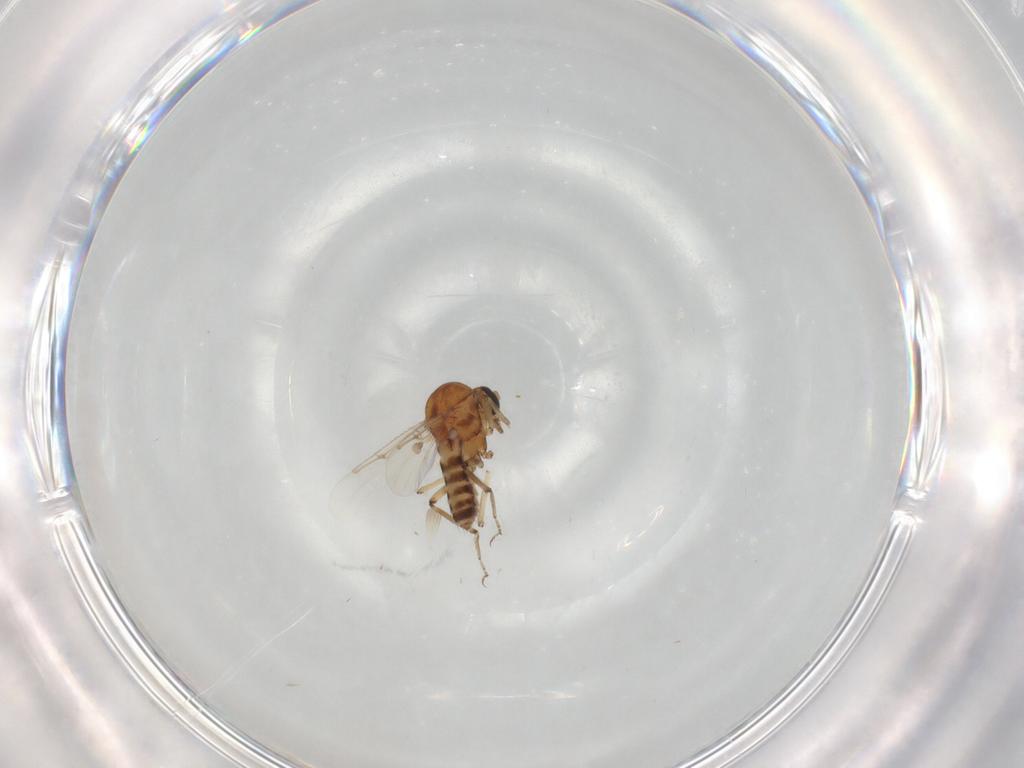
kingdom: Animalia
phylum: Arthropoda
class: Insecta
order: Diptera
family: Ceratopogonidae
